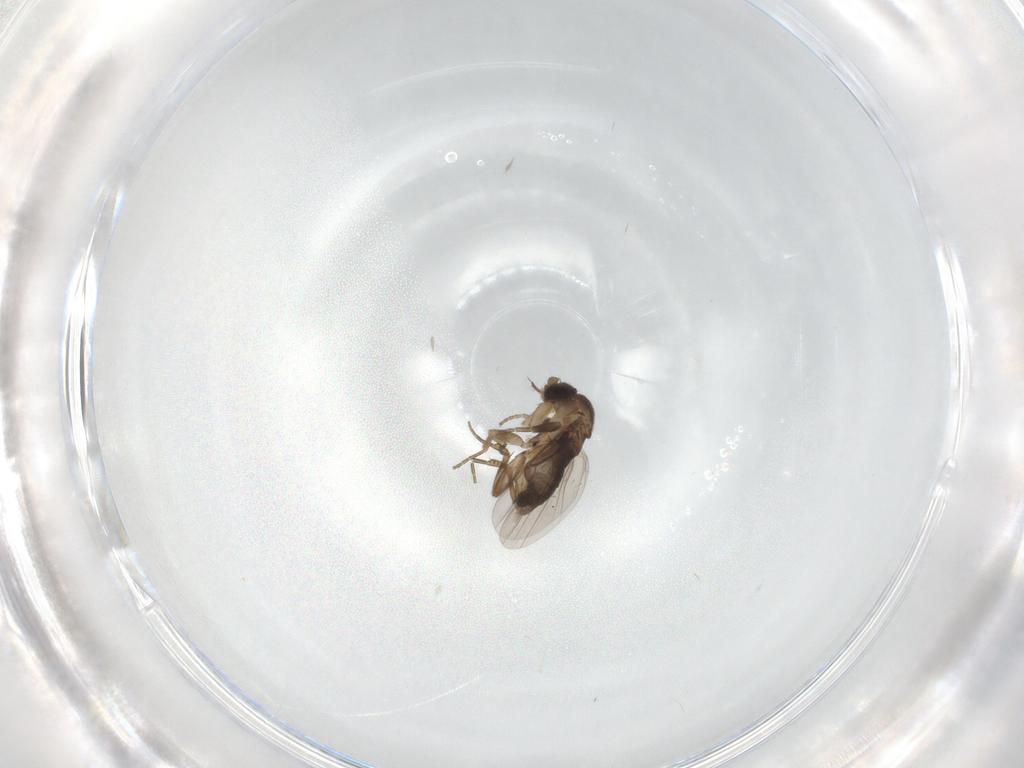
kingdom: Animalia
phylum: Arthropoda
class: Insecta
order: Diptera
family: Phoridae
